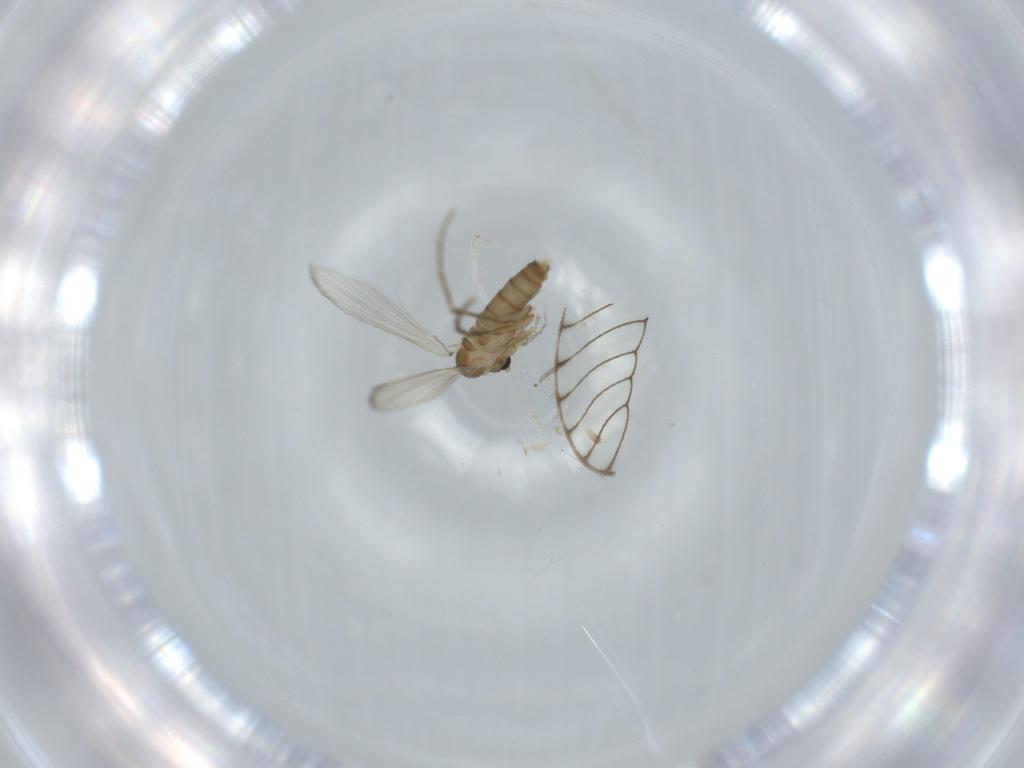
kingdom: Animalia
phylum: Arthropoda
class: Insecta
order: Diptera
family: Psychodidae
